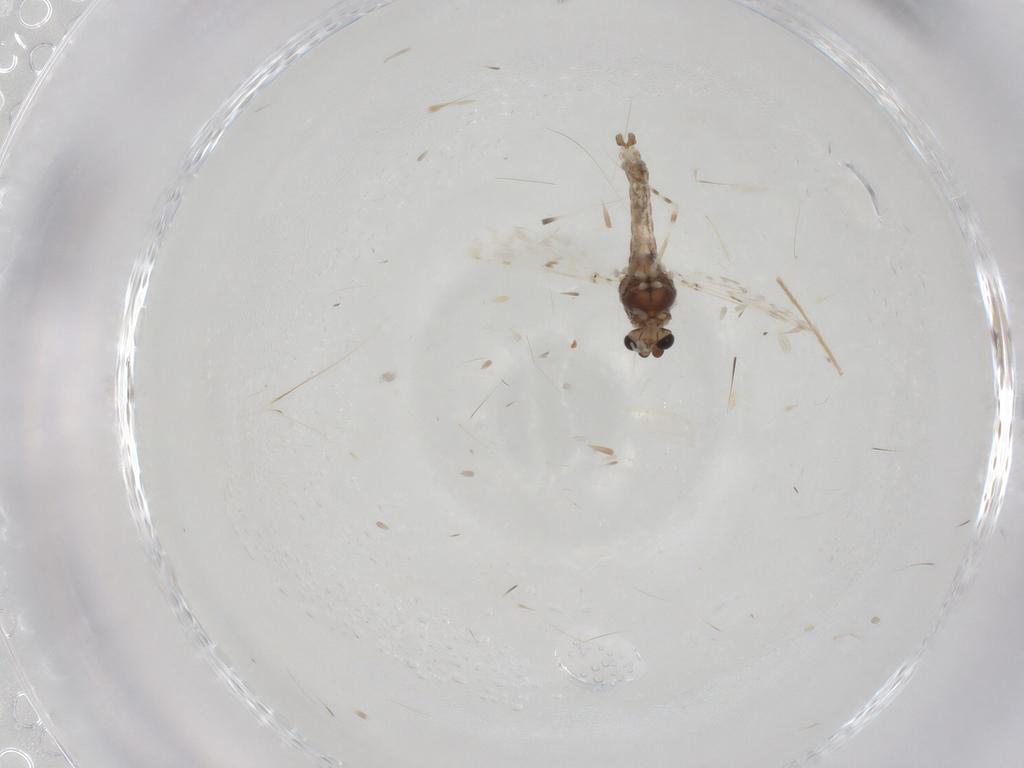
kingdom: Animalia
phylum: Arthropoda
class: Insecta
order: Diptera
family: Chironomidae
